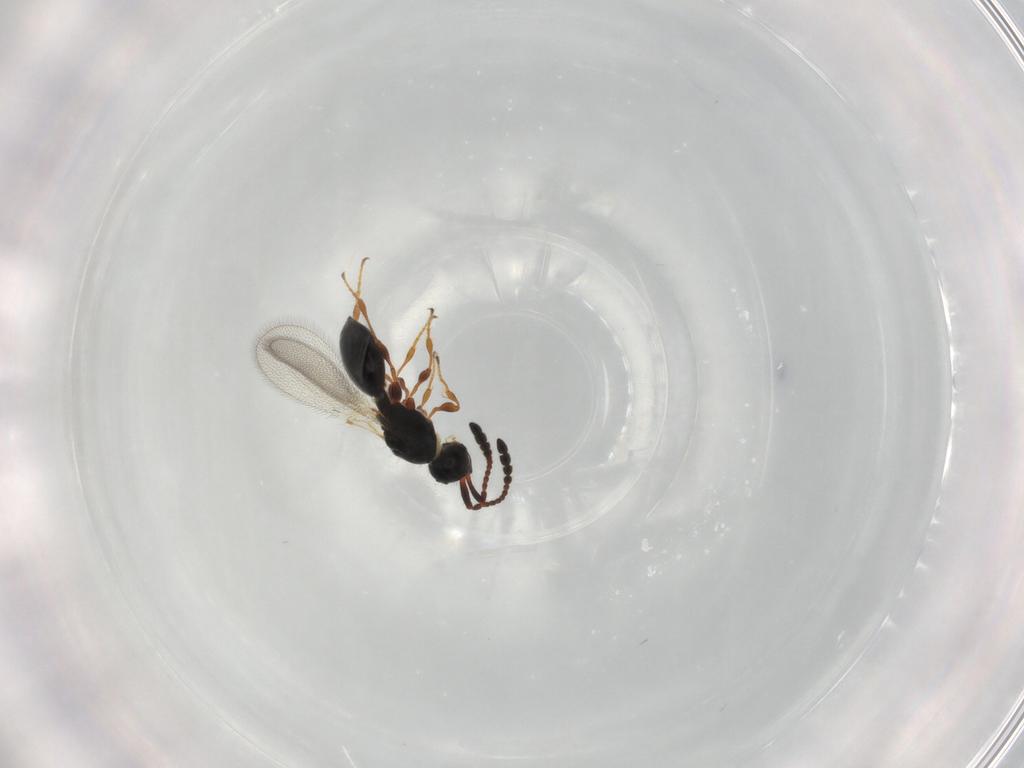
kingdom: Animalia
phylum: Arthropoda
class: Insecta
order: Hymenoptera
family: Diapriidae
